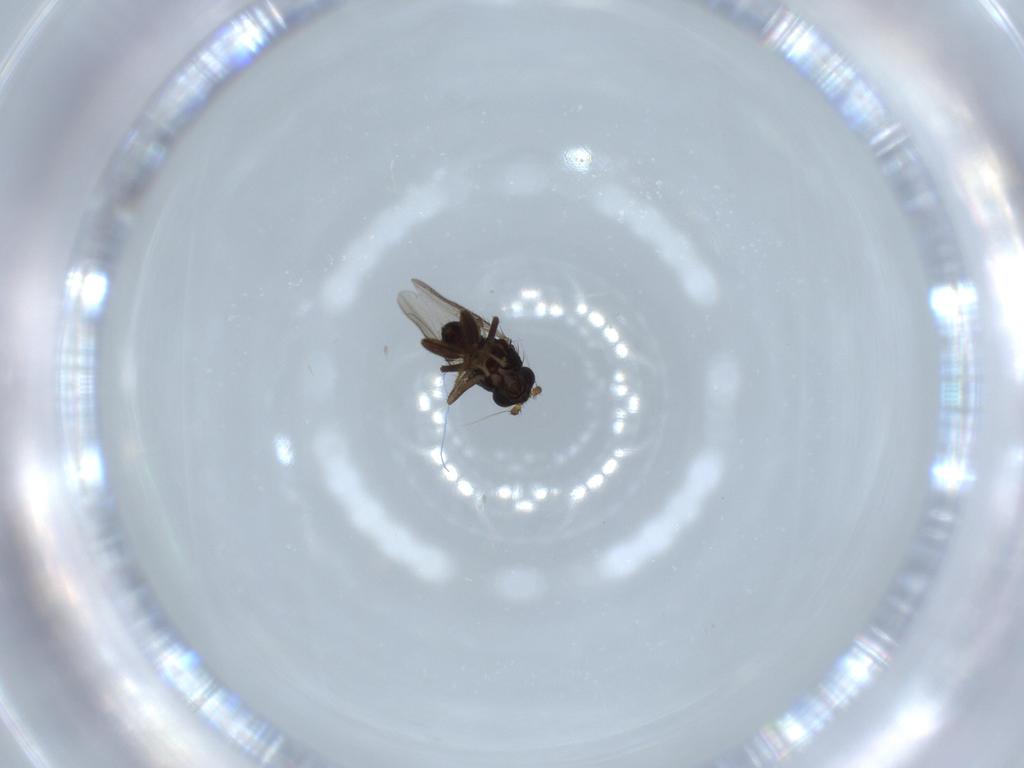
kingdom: Animalia
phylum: Arthropoda
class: Insecta
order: Diptera
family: Sphaeroceridae
